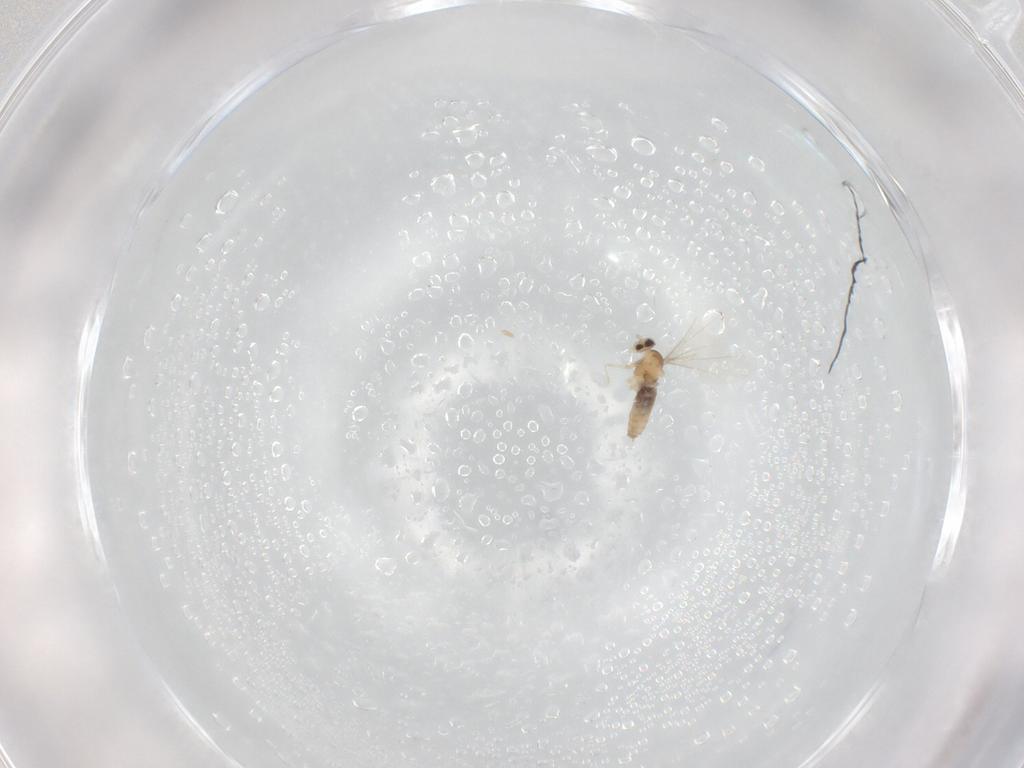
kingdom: Animalia
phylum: Arthropoda
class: Insecta
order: Diptera
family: Cecidomyiidae
